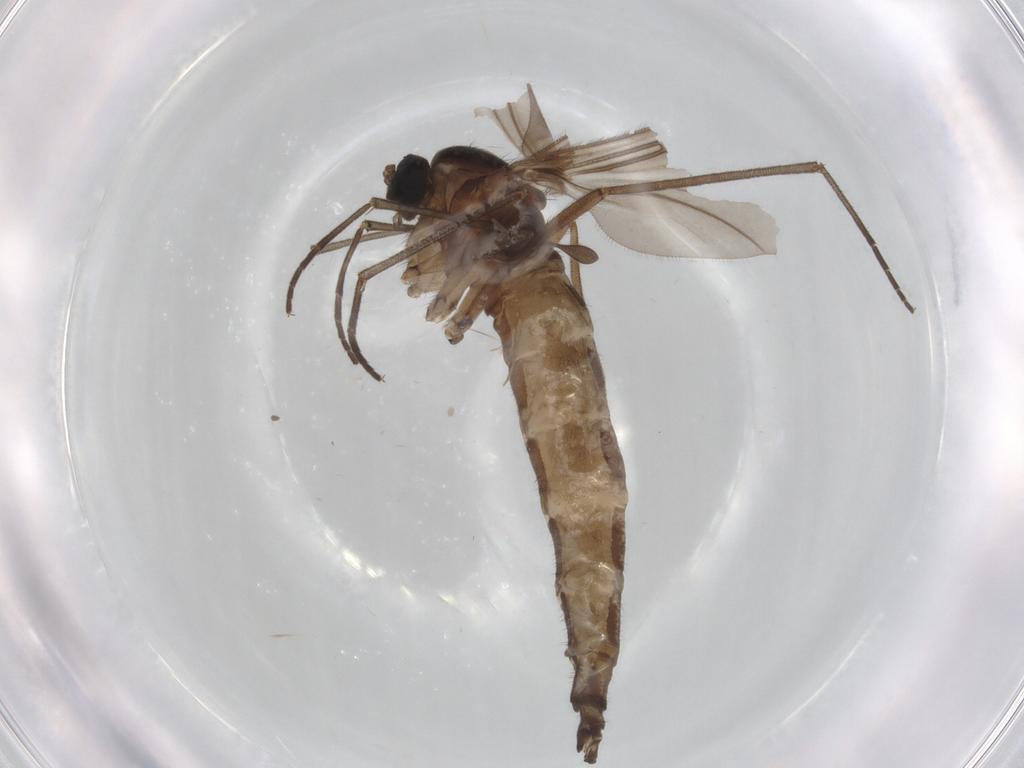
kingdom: Animalia
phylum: Arthropoda
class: Insecta
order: Diptera
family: Sciaridae
